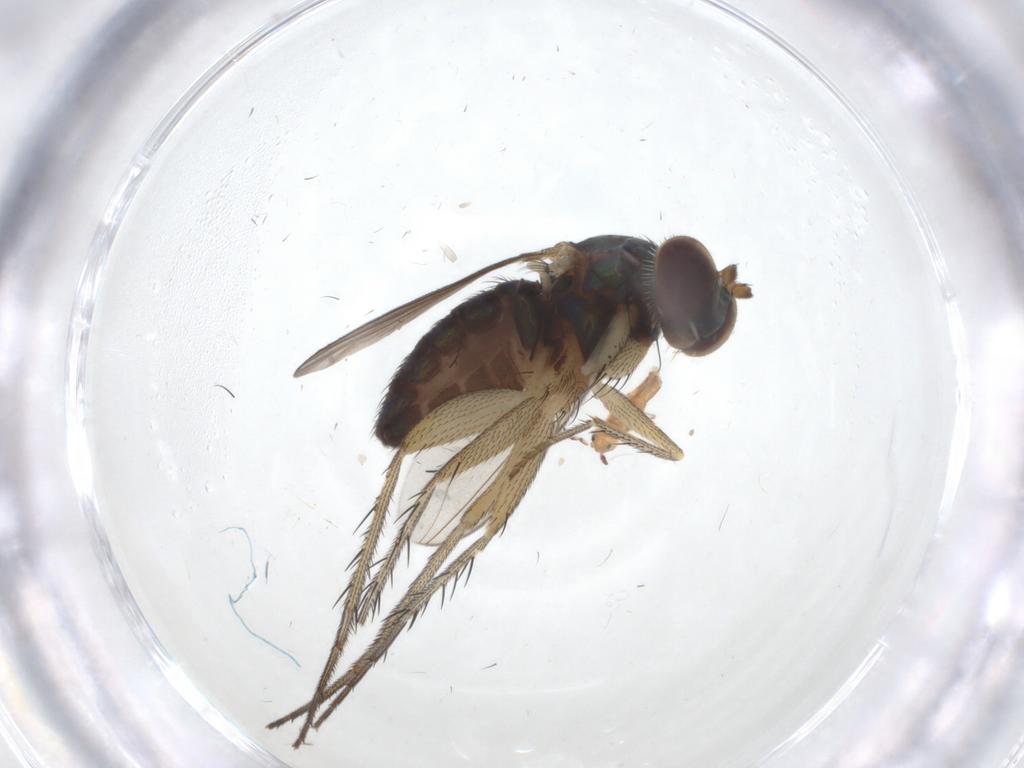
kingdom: Animalia
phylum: Arthropoda
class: Insecta
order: Diptera
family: Dolichopodidae
